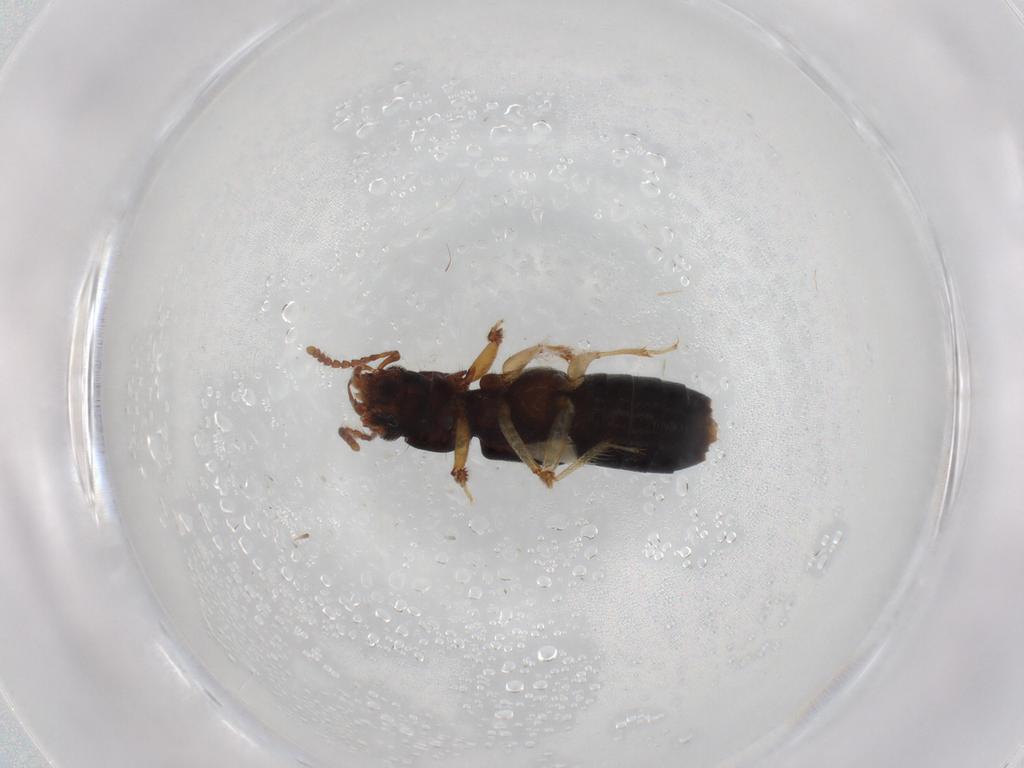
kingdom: Animalia
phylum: Arthropoda
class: Insecta
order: Coleoptera
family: Staphylinidae
